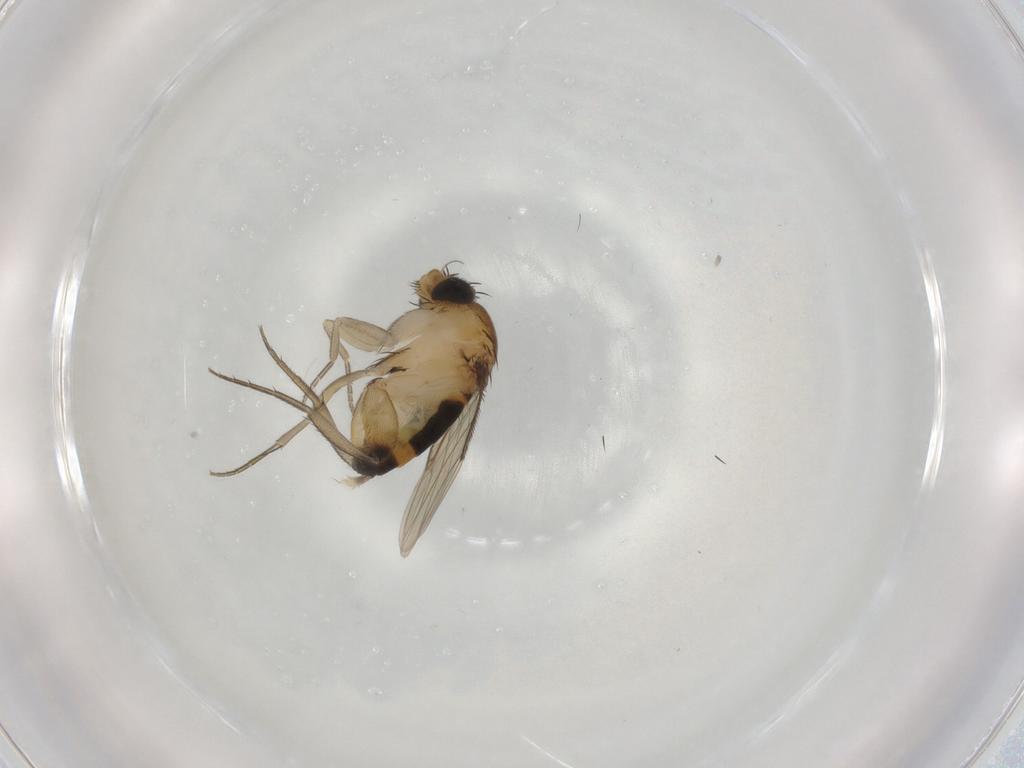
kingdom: Animalia
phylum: Arthropoda
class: Insecta
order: Diptera
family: Phoridae
